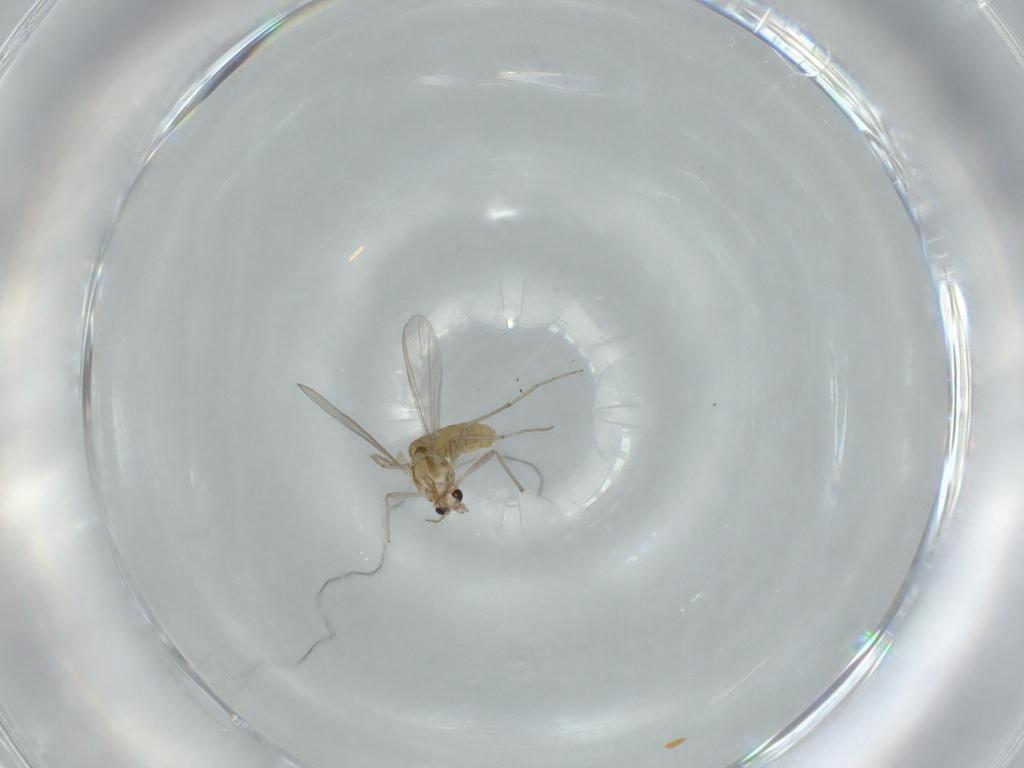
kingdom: Animalia
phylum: Arthropoda
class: Insecta
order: Diptera
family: Chironomidae
